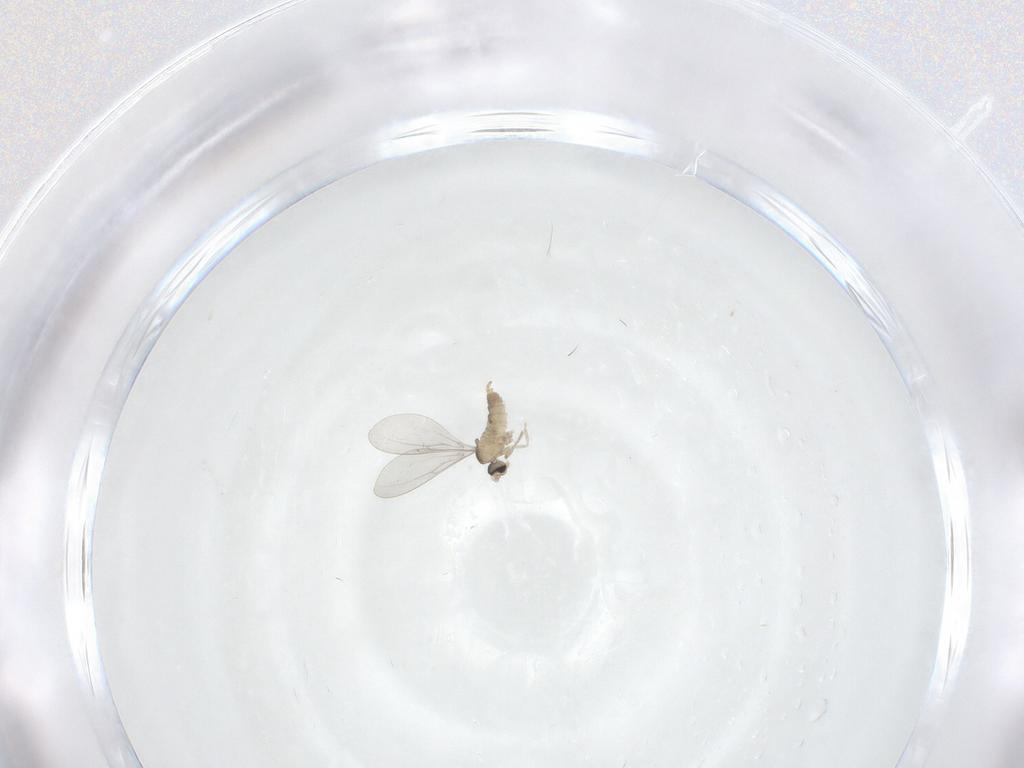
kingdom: Animalia
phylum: Arthropoda
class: Insecta
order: Diptera
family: Cecidomyiidae
